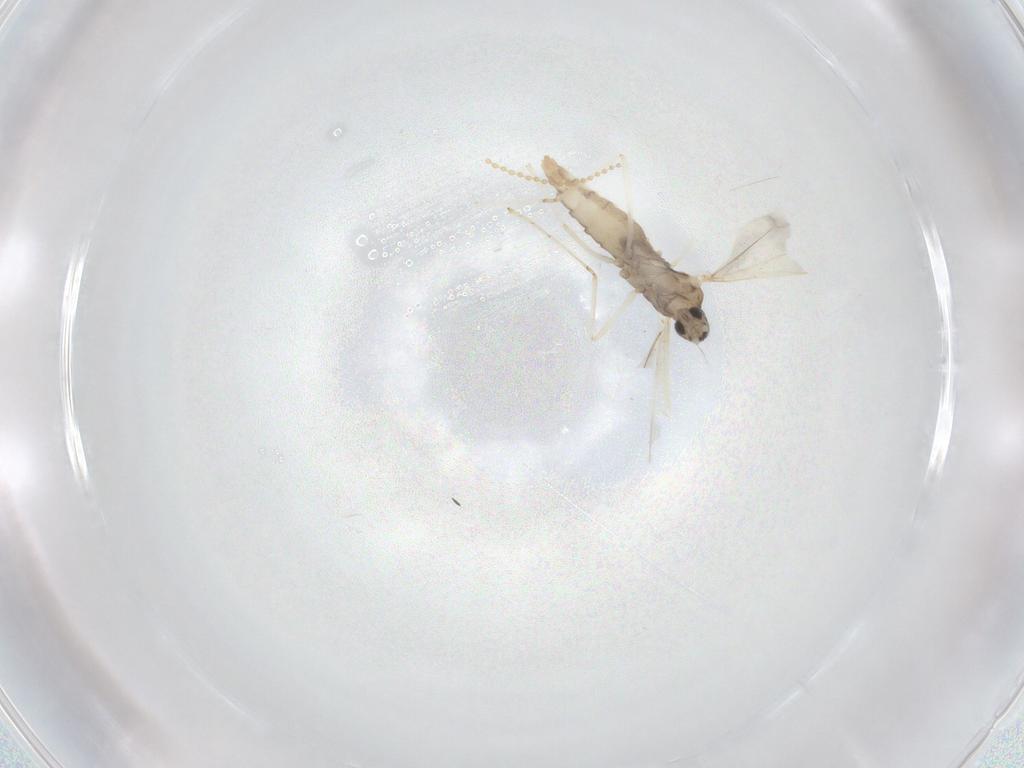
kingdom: Animalia
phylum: Arthropoda
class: Insecta
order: Diptera
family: Cecidomyiidae
